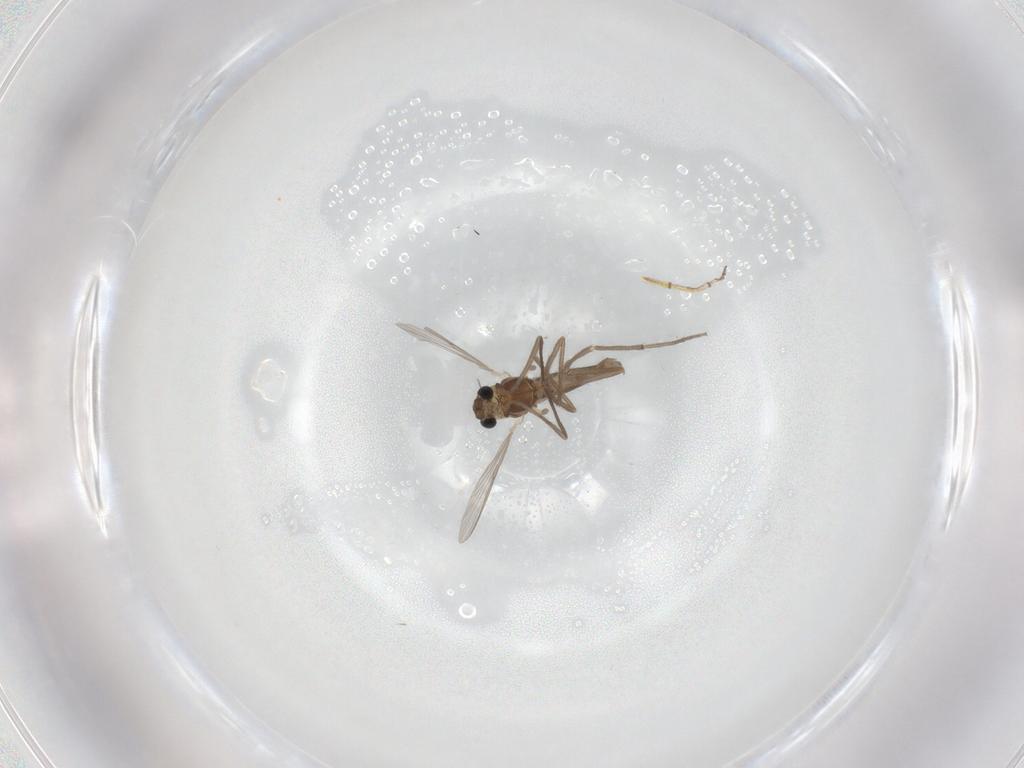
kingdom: Animalia
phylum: Arthropoda
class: Insecta
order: Diptera
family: Chironomidae
